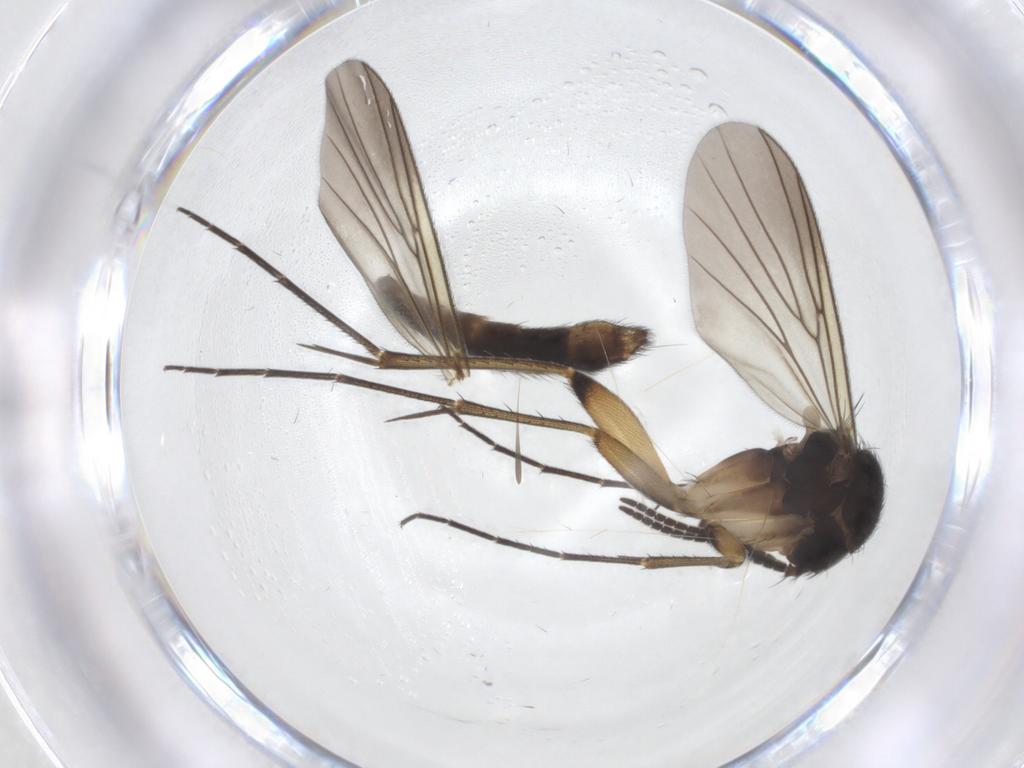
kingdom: Animalia
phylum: Arthropoda
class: Insecta
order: Diptera
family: Mycetophilidae
